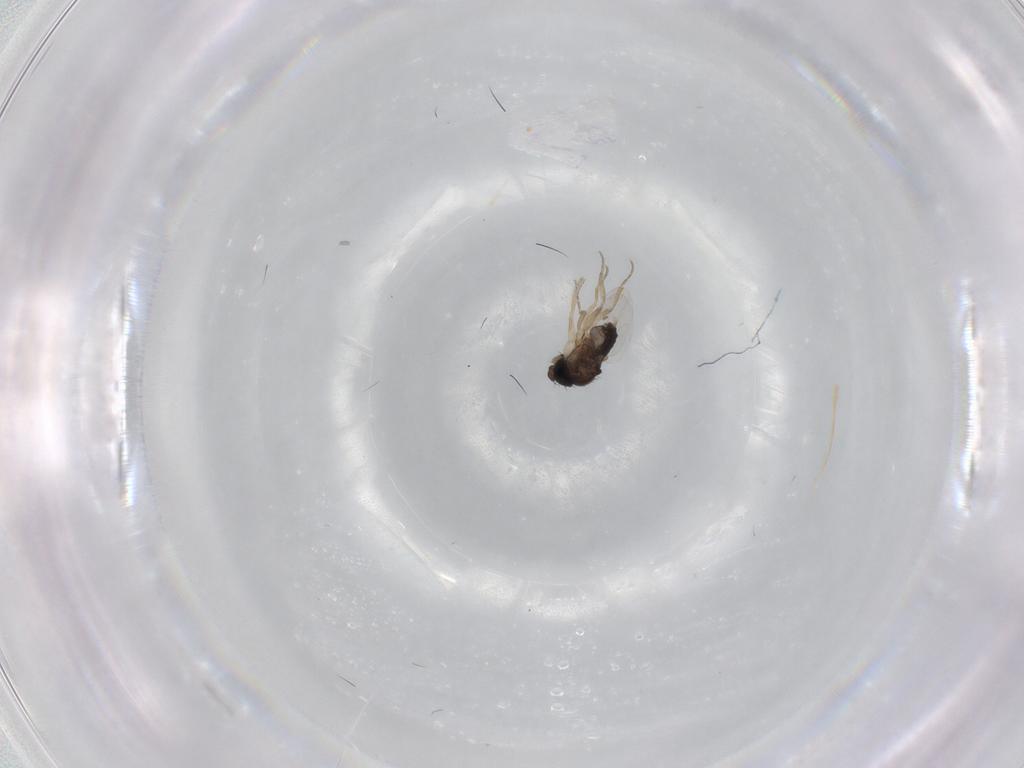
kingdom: Animalia
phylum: Arthropoda
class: Insecta
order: Diptera
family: Phoridae
